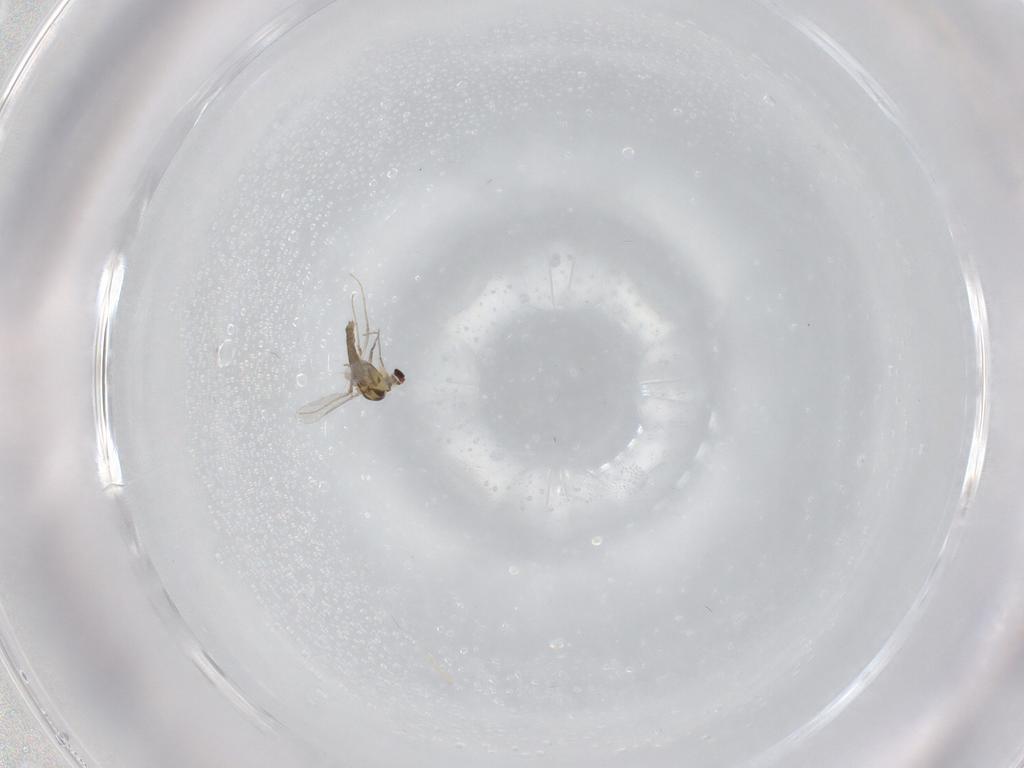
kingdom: Animalia
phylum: Arthropoda
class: Insecta
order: Diptera
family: Chironomidae
